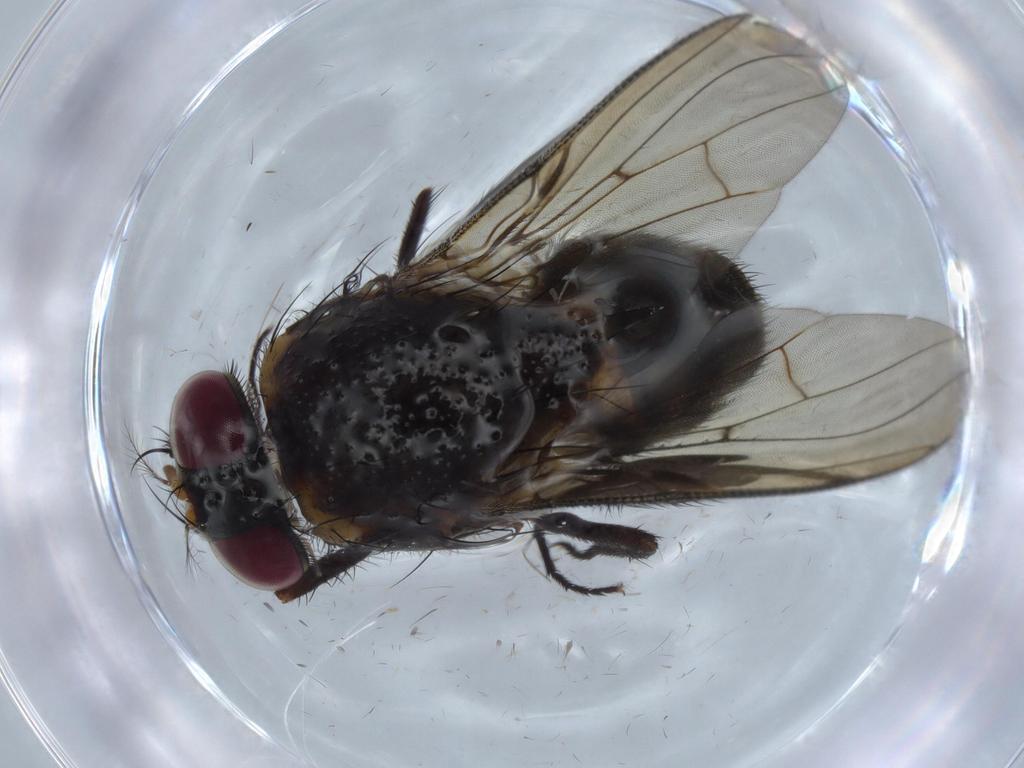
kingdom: Animalia
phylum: Arthropoda
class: Insecta
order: Diptera
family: Muscidae
